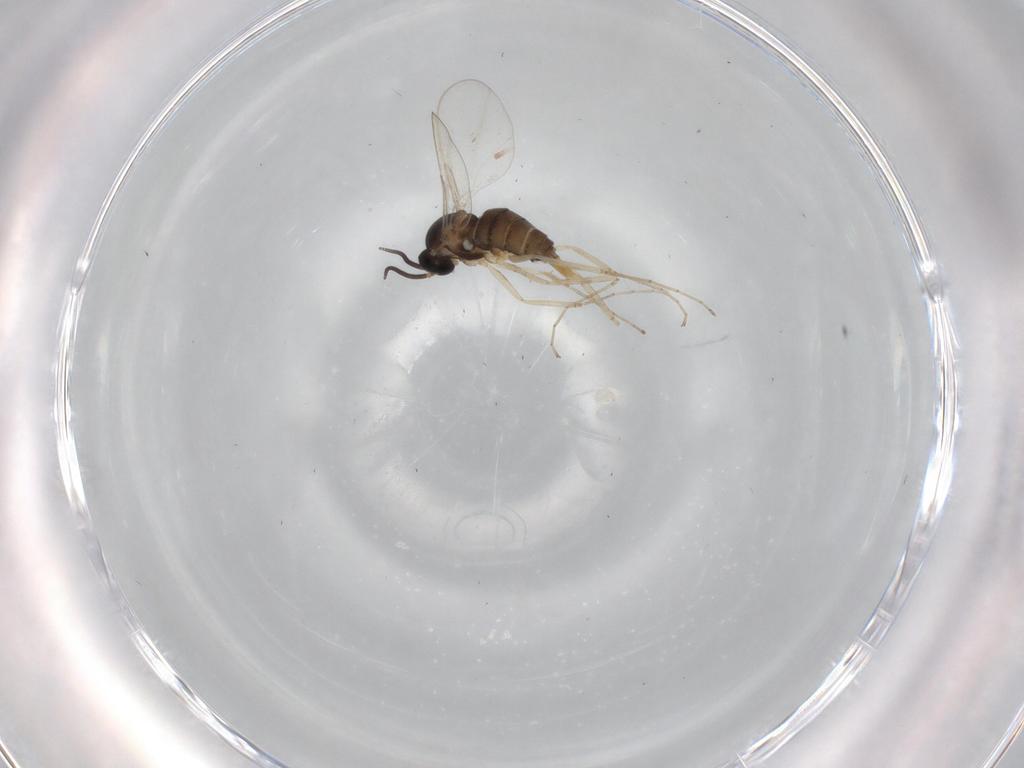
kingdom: Animalia
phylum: Arthropoda
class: Insecta
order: Diptera
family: Cecidomyiidae
